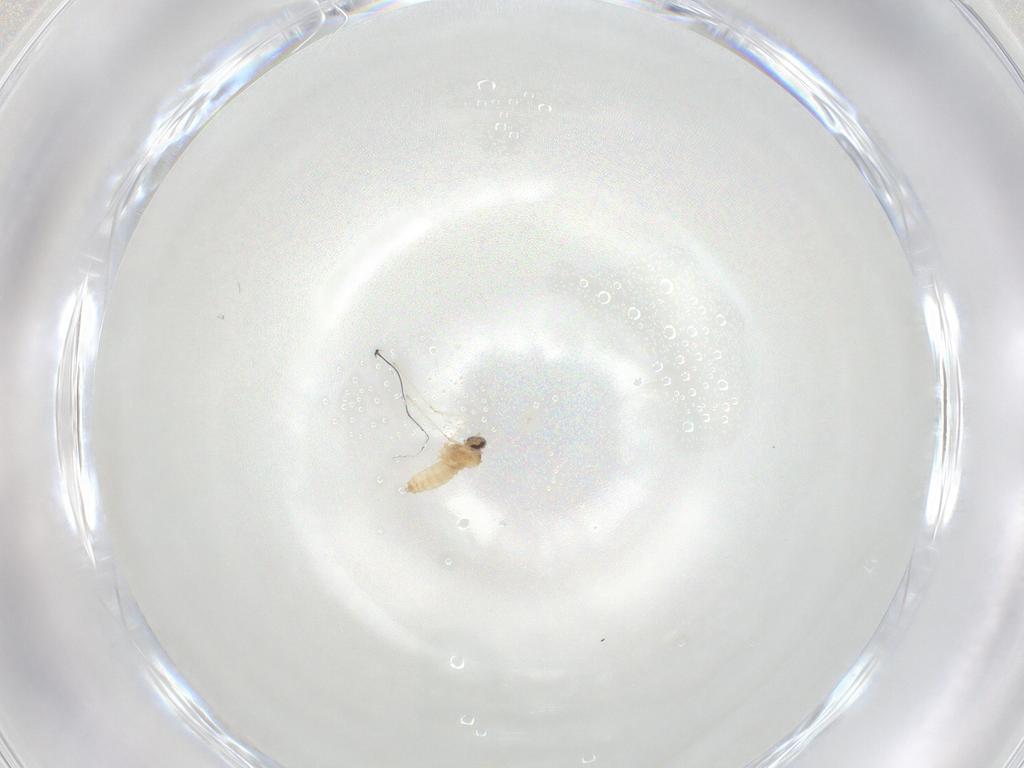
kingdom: Animalia
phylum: Arthropoda
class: Insecta
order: Diptera
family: Cecidomyiidae
